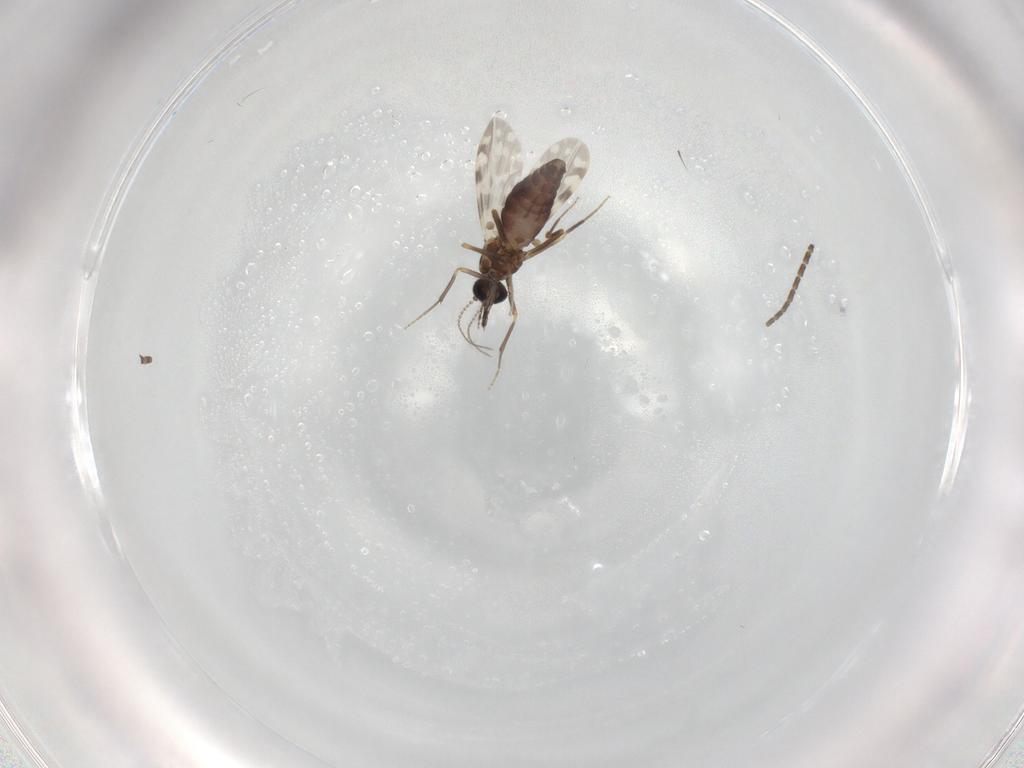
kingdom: Animalia
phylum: Arthropoda
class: Insecta
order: Diptera
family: Sciaridae
